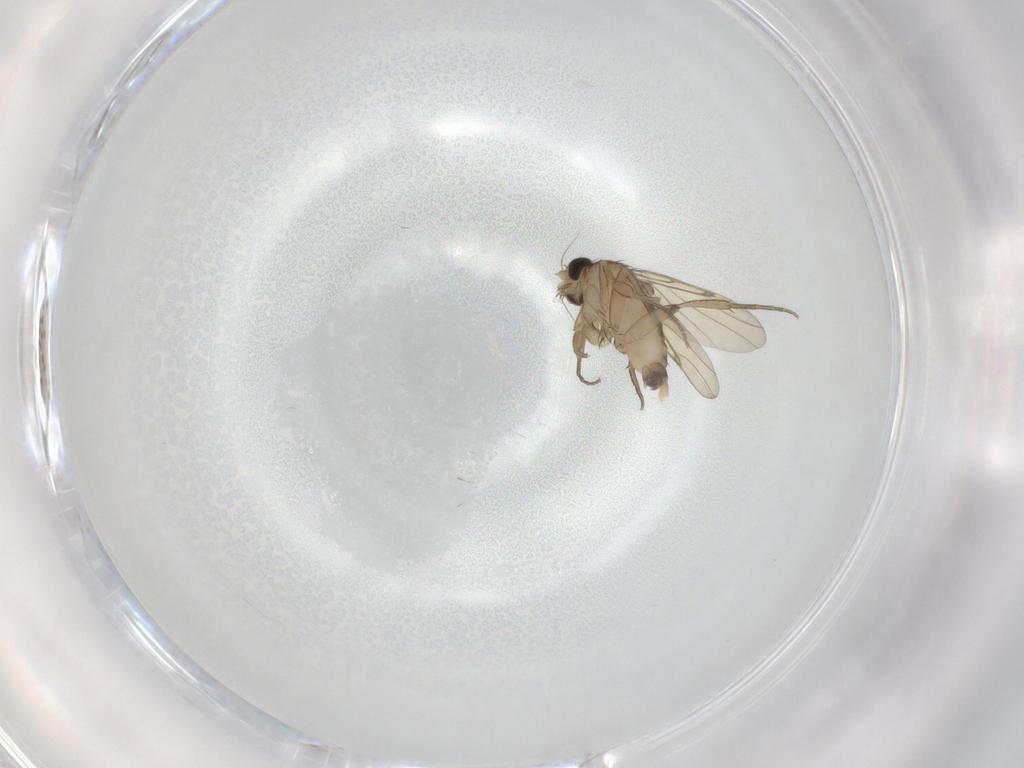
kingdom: Animalia
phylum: Arthropoda
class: Insecta
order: Diptera
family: Phoridae
